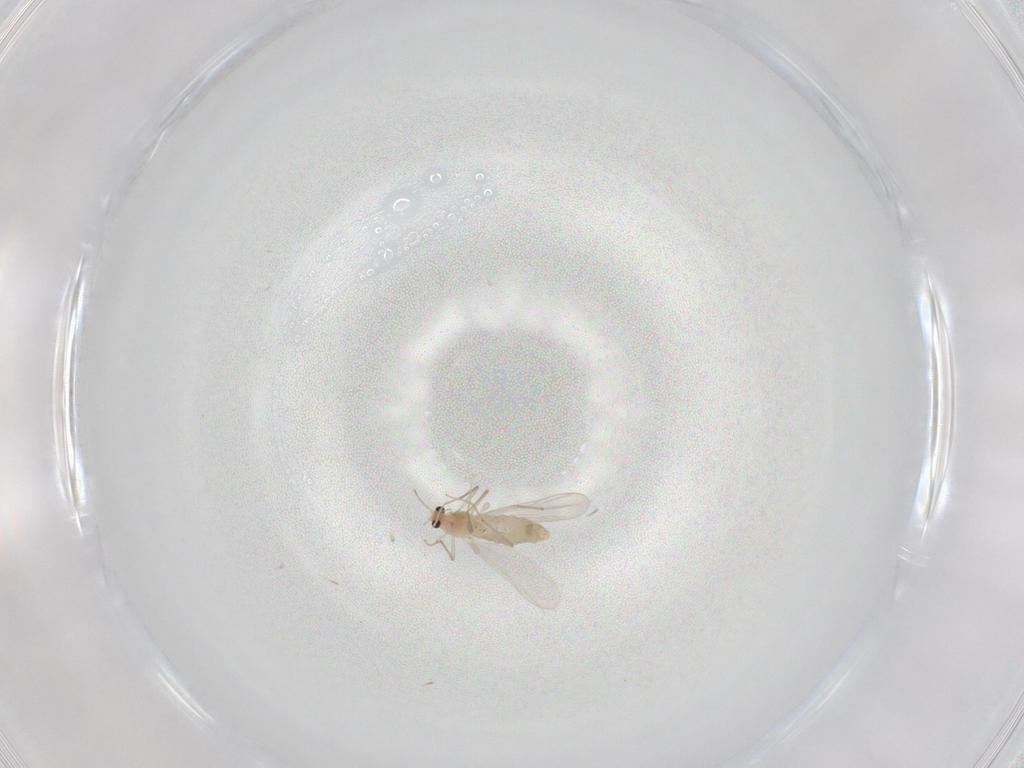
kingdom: Animalia
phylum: Arthropoda
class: Insecta
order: Diptera
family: Chironomidae
